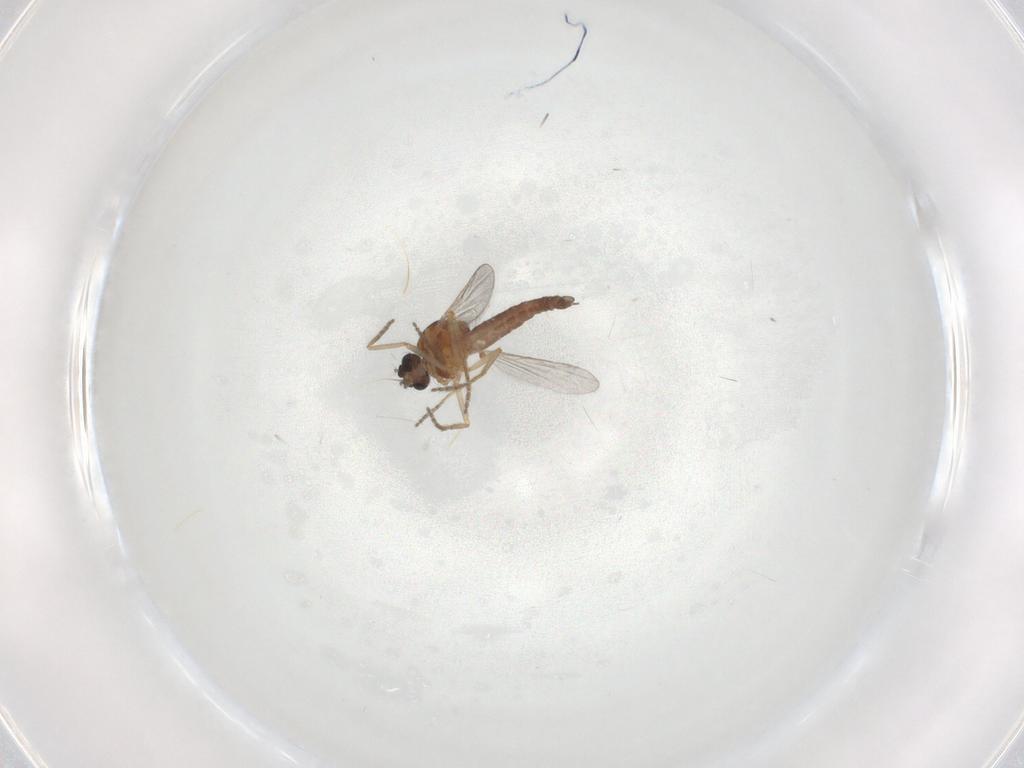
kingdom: Animalia
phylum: Arthropoda
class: Insecta
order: Diptera
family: Ceratopogonidae
